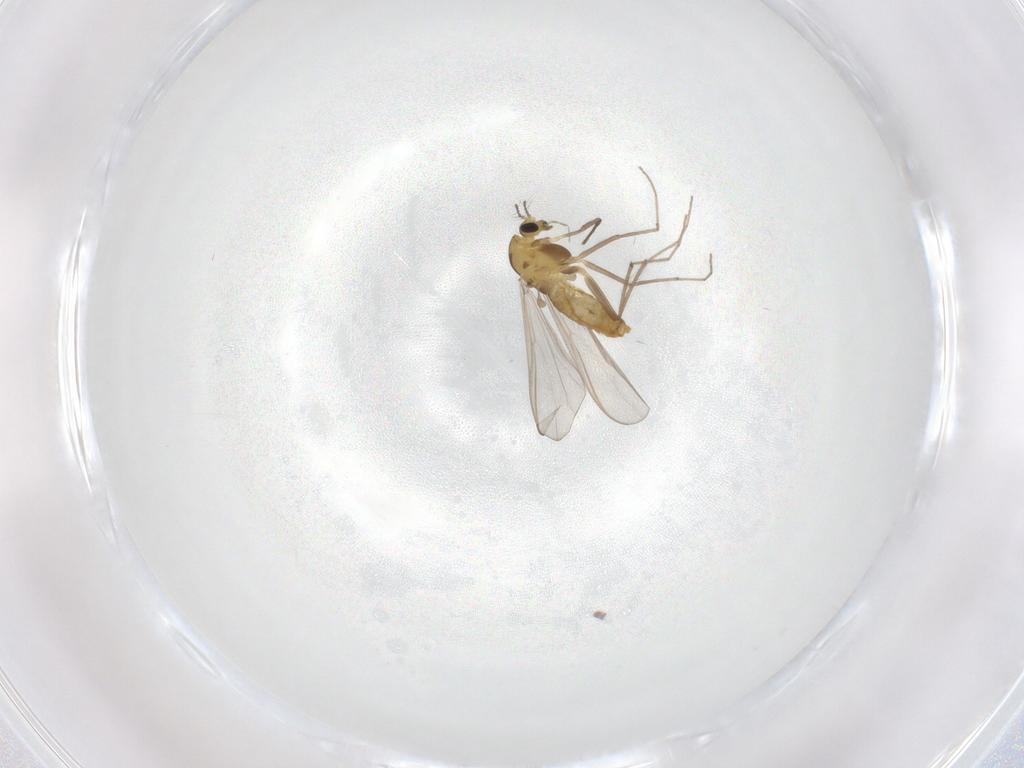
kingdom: Animalia
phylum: Arthropoda
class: Insecta
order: Diptera
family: Chironomidae
